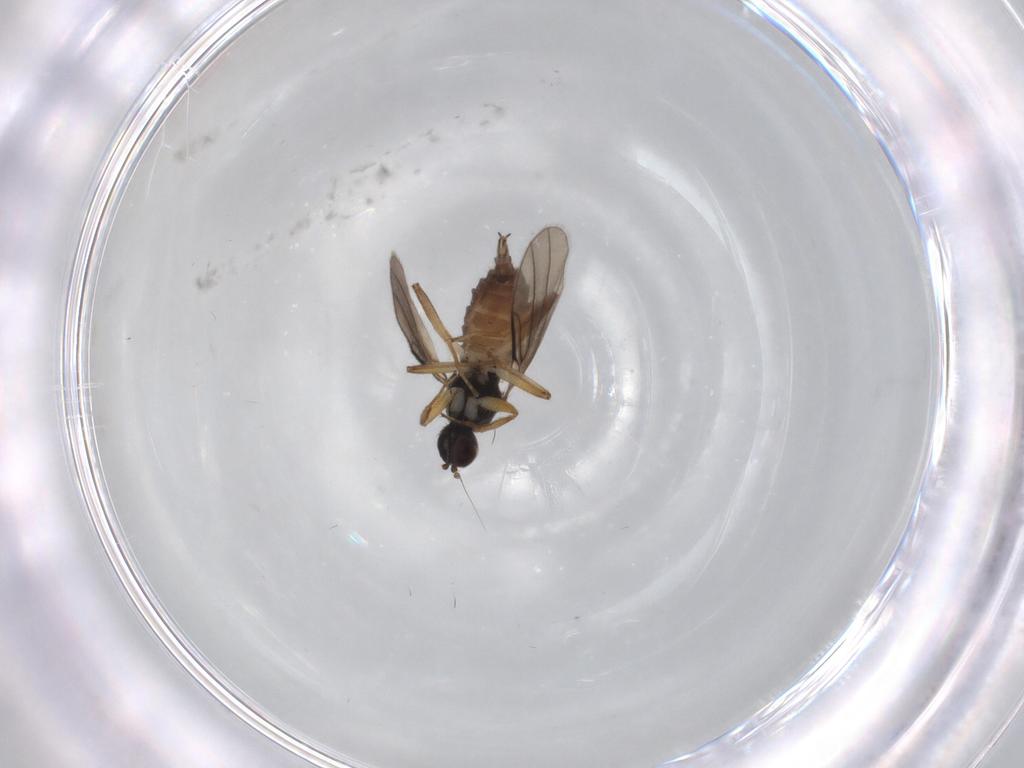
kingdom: Animalia
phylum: Arthropoda
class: Insecta
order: Diptera
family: Hybotidae
